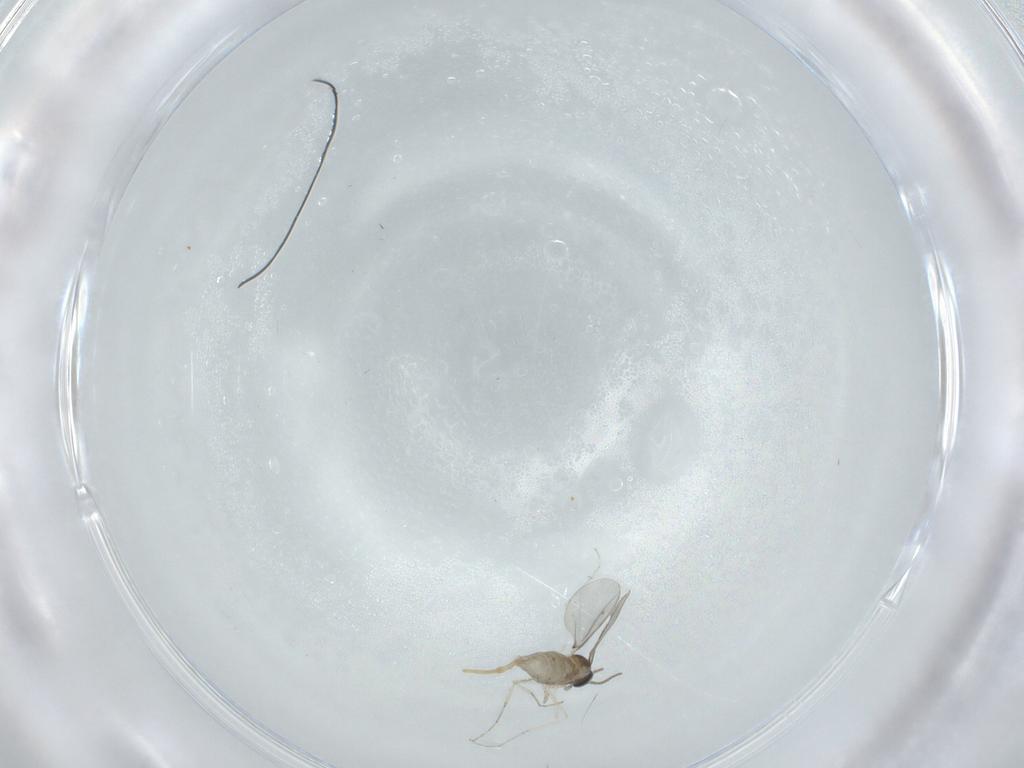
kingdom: Animalia
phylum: Arthropoda
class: Insecta
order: Diptera
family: Cecidomyiidae
